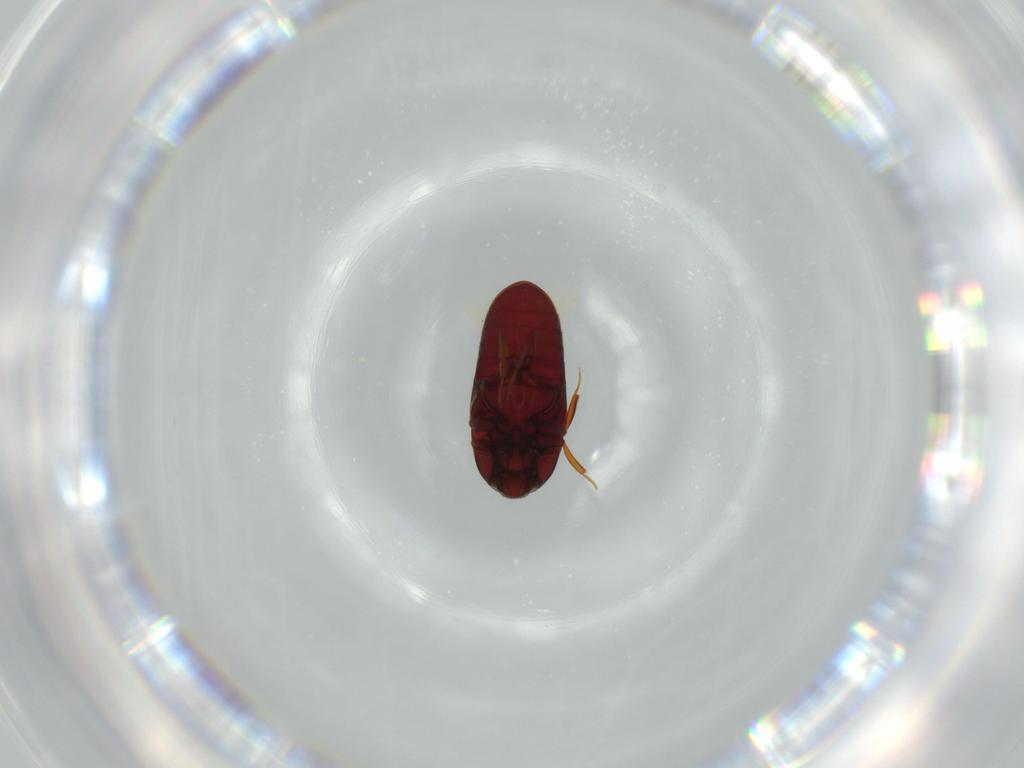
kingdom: Animalia
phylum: Arthropoda
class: Insecta
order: Coleoptera
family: Throscidae
